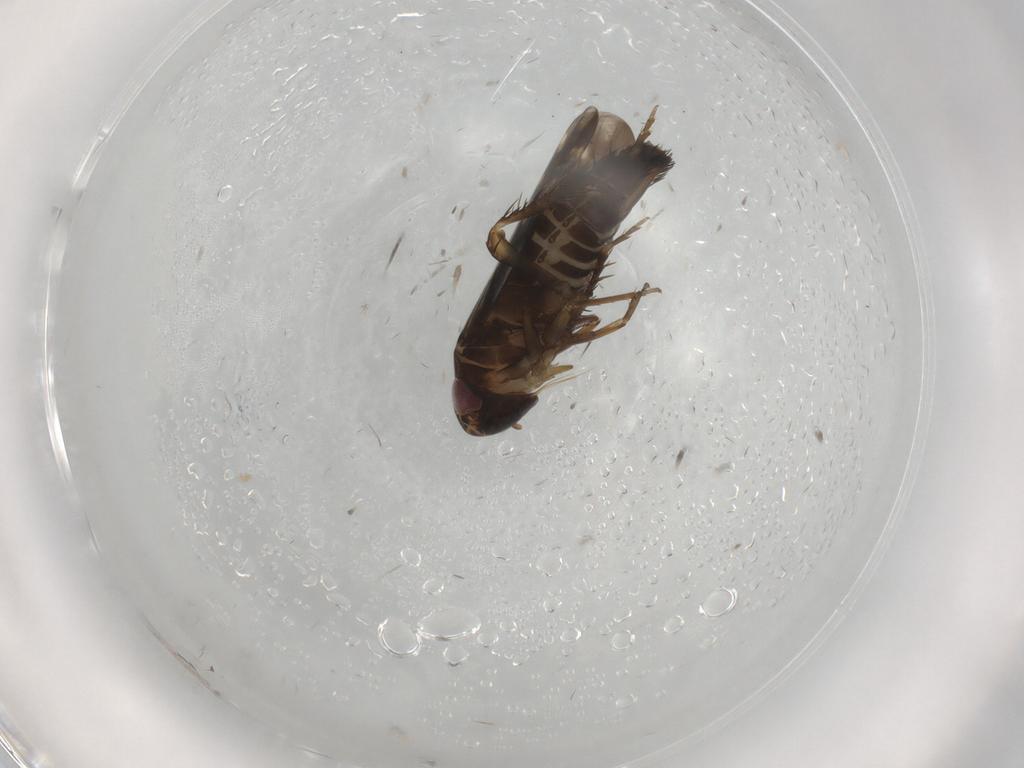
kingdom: Animalia
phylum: Arthropoda
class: Insecta
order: Hemiptera
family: Cicadellidae
